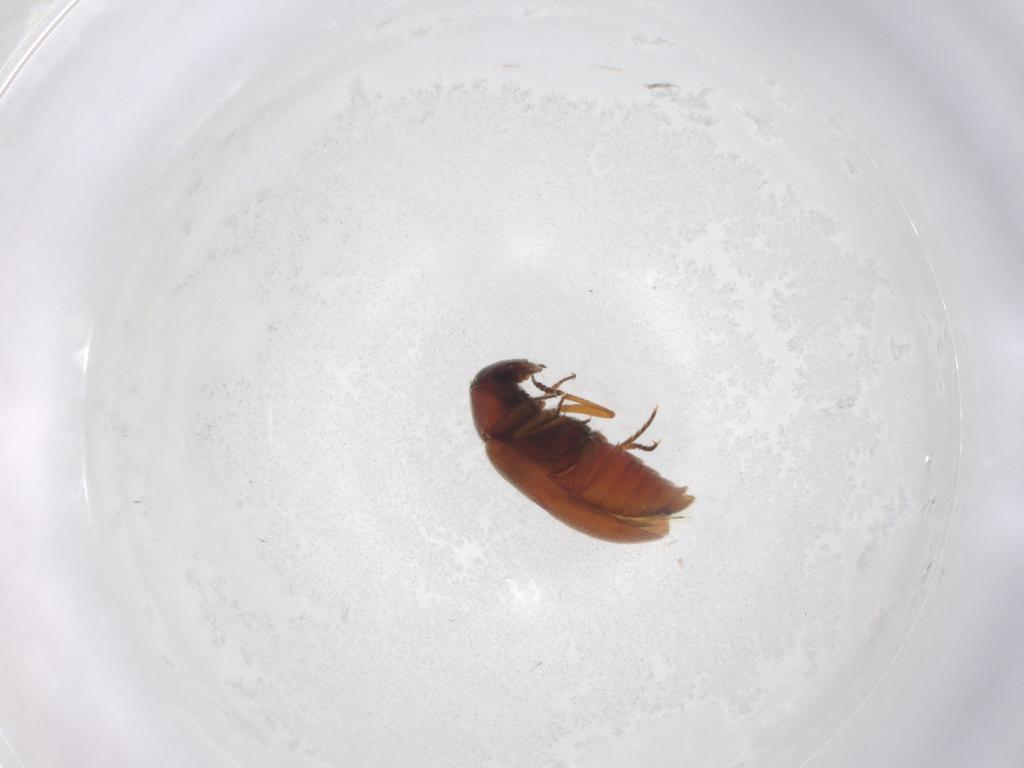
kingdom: Animalia
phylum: Arthropoda
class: Insecta
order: Coleoptera
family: Rhadalidae
